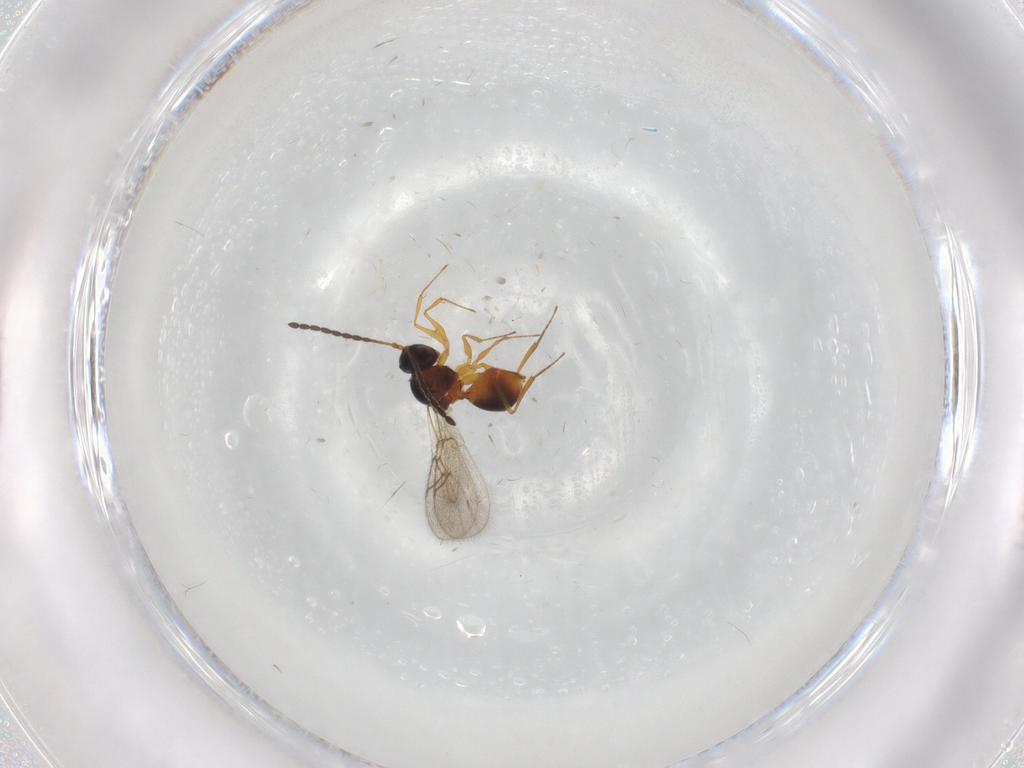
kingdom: Animalia
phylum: Arthropoda
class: Insecta
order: Hymenoptera
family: Figitidae
